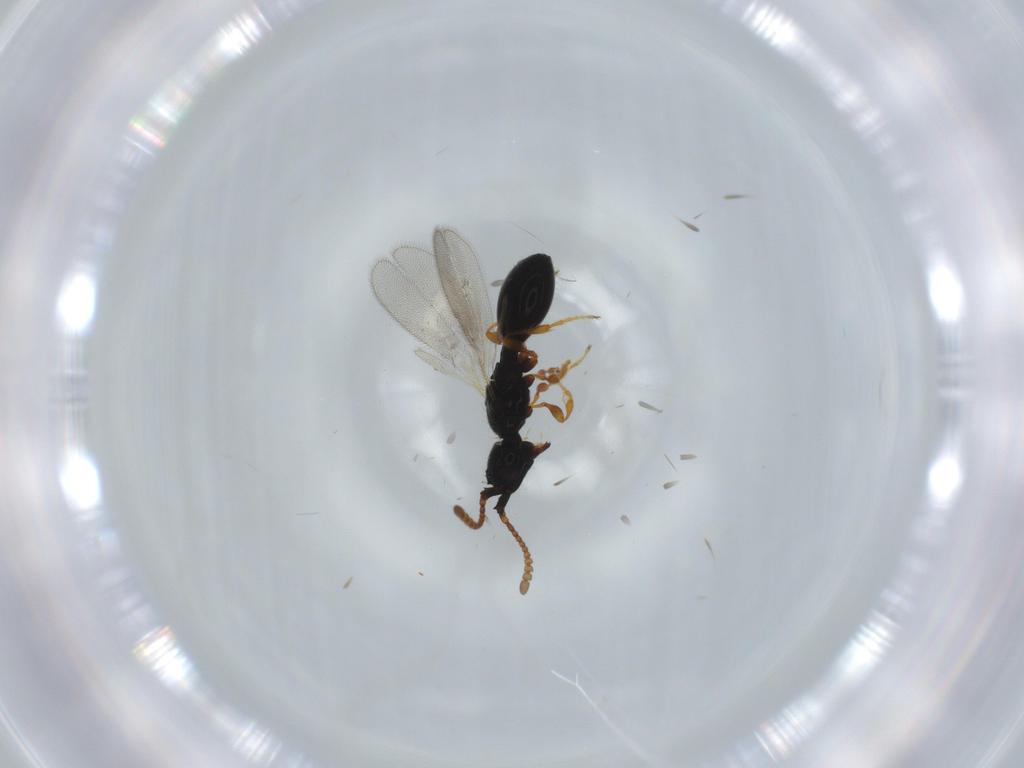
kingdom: Animalia
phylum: Arthropoda
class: Insecta
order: Hymenoptera
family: Diapriidae
